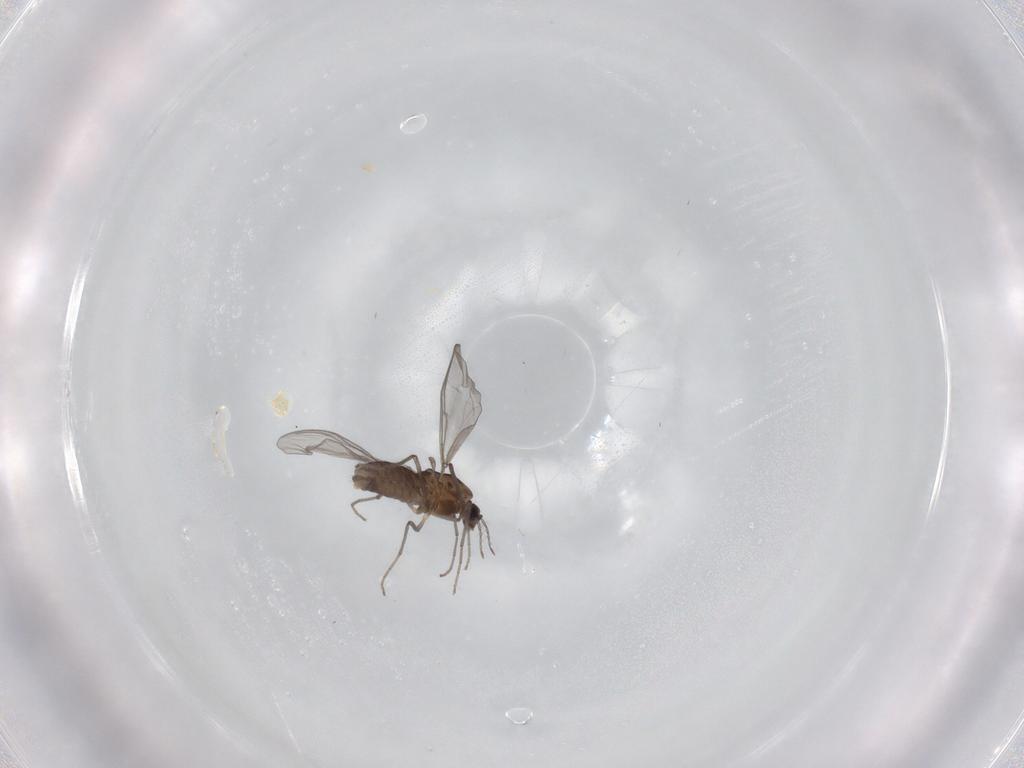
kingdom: Animalia
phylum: Arthropoda
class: Insecta
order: Diptera
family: Chironomidae
